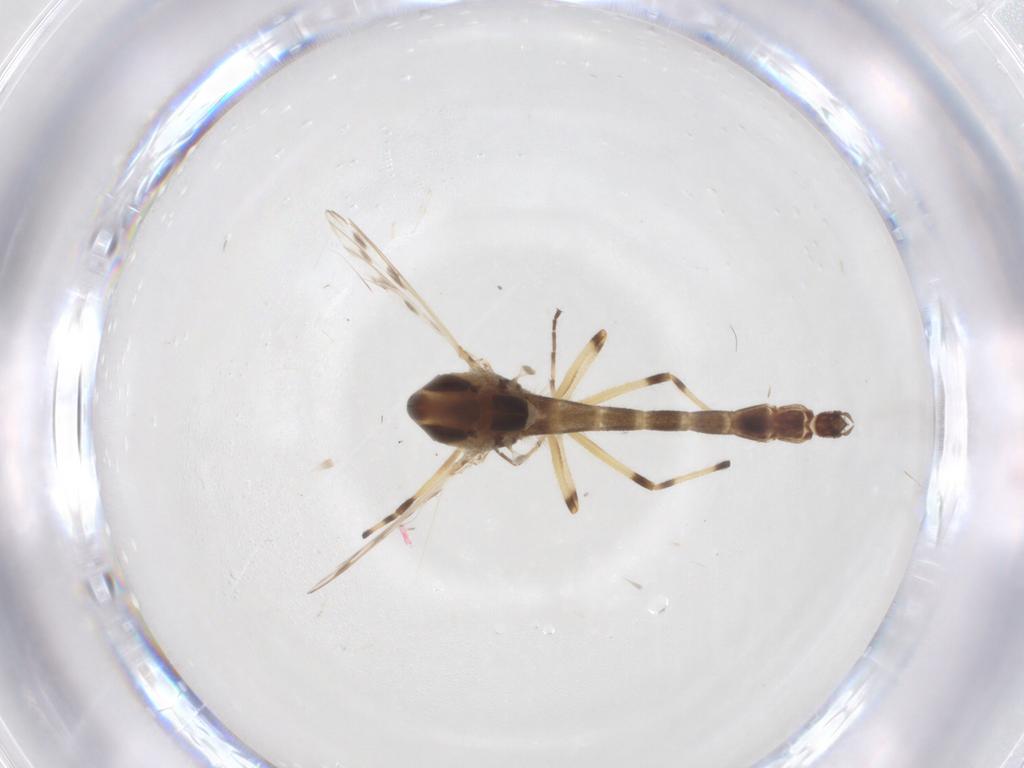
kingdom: Animalia
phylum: Arthropoda
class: Insecta
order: Diptera
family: Chironomidae
